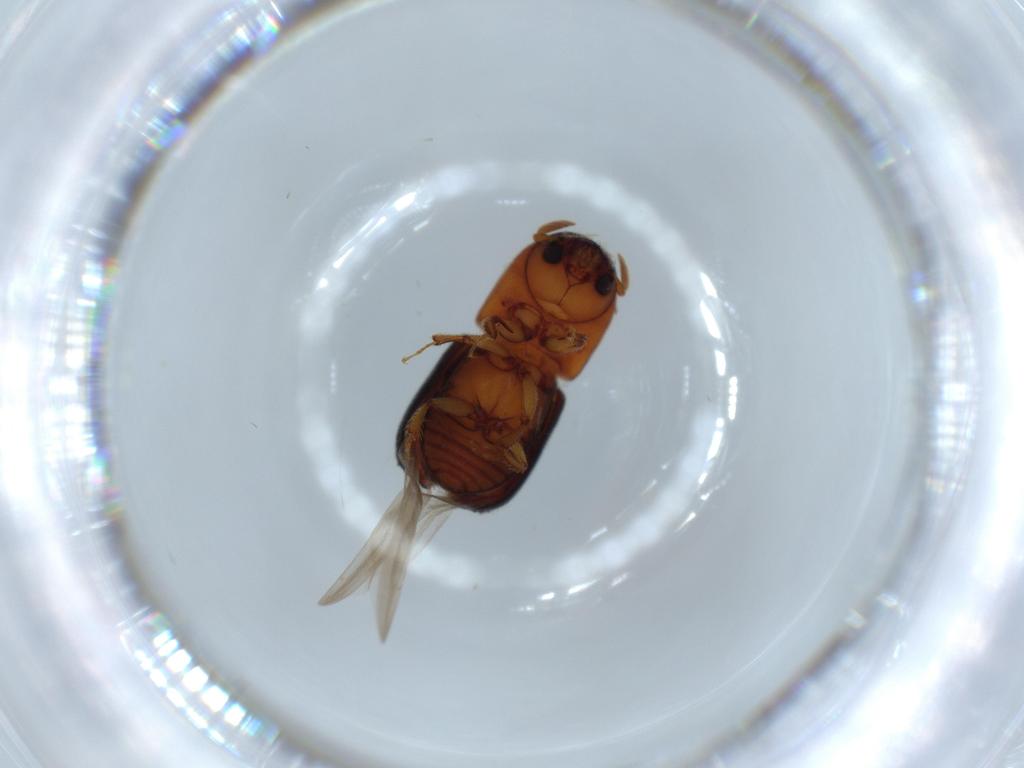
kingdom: Animalia
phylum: Arthropoda
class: Insecta
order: Coleoptera
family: Curculionidae
